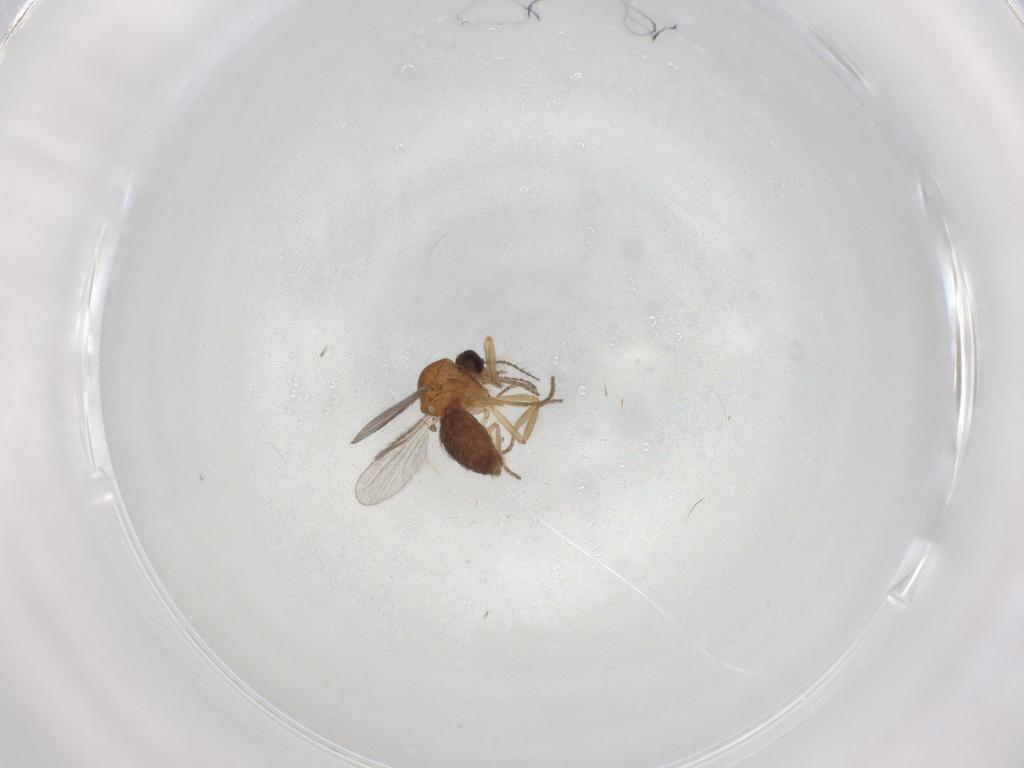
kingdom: Animalia
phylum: Arthropoda
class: Insecta
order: Diptera
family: Ceratopogonidae
